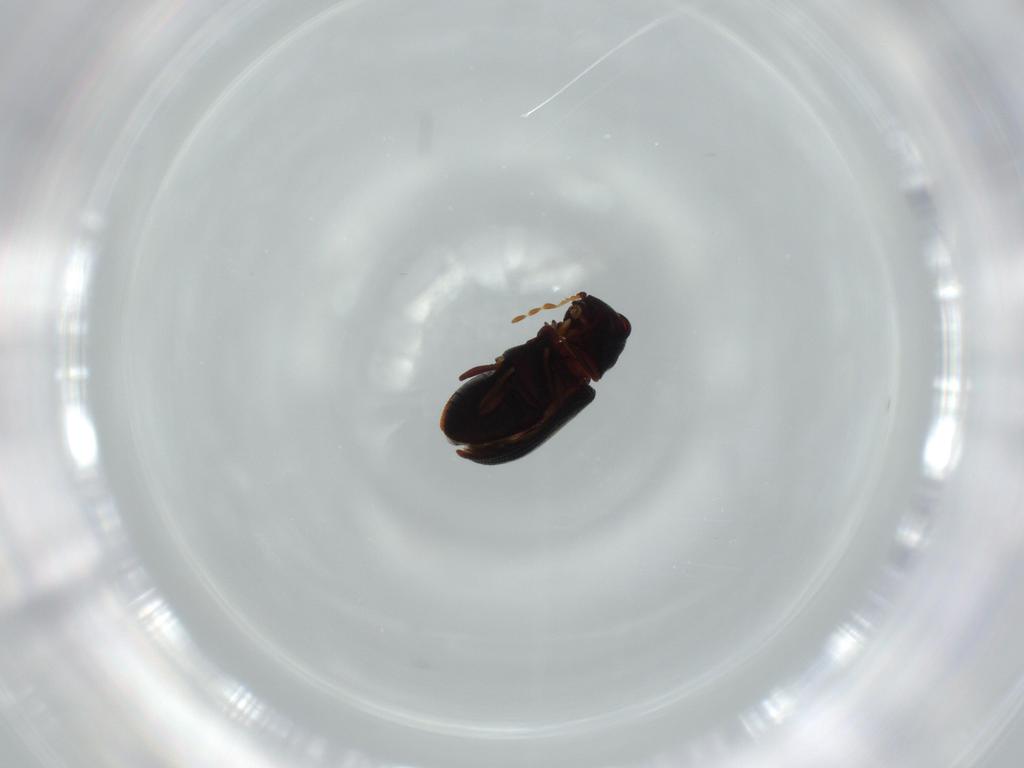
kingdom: Animalia
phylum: Arthropoda
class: Insecta
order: Coleoptera
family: Ptinidae
